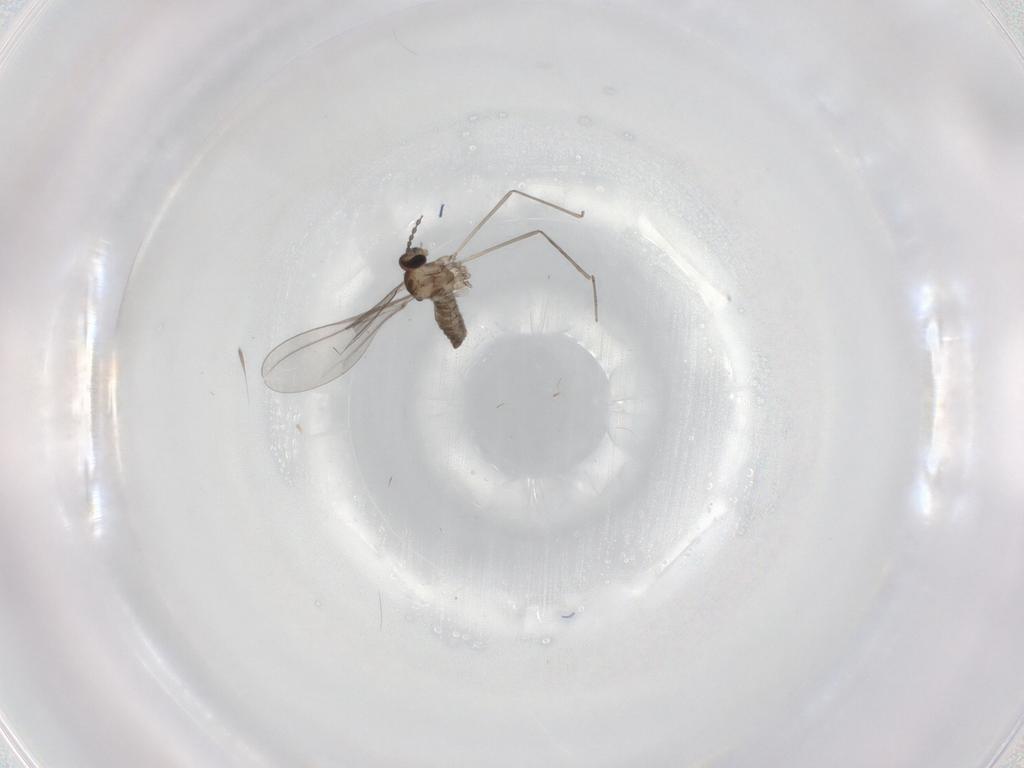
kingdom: Animalia
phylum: Arthropoda
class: Insecta
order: Diptera
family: Cecidomyiidae
